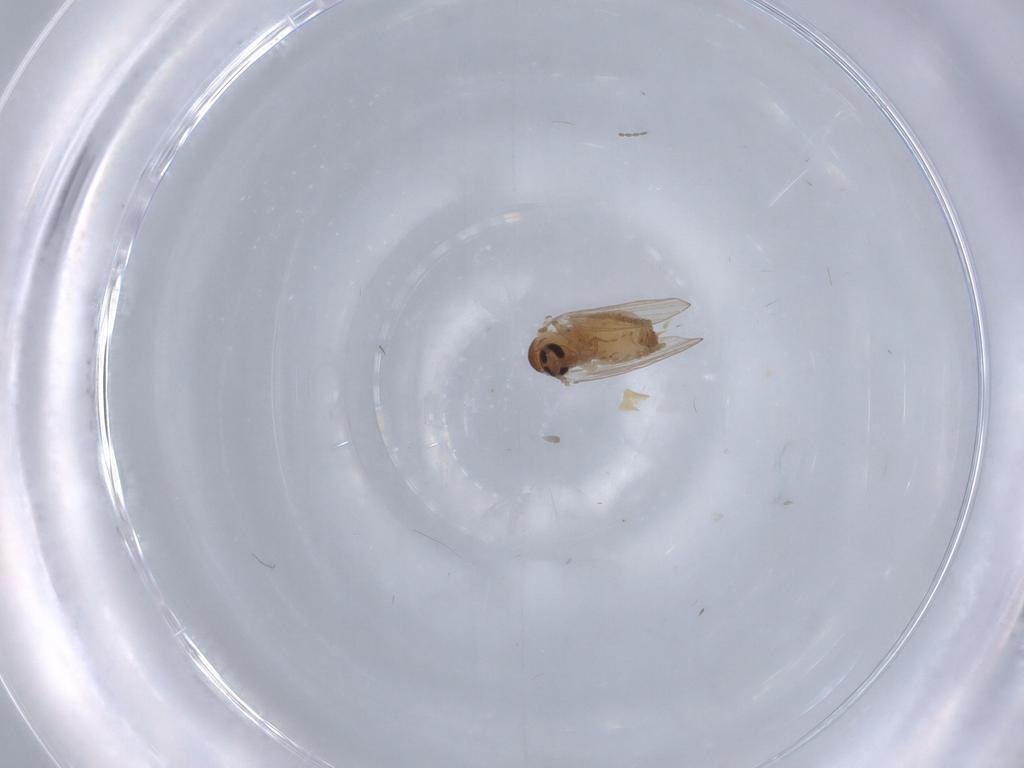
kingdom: Animalia
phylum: Arthropoda
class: Insecta
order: Diptera
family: Psychodidae
